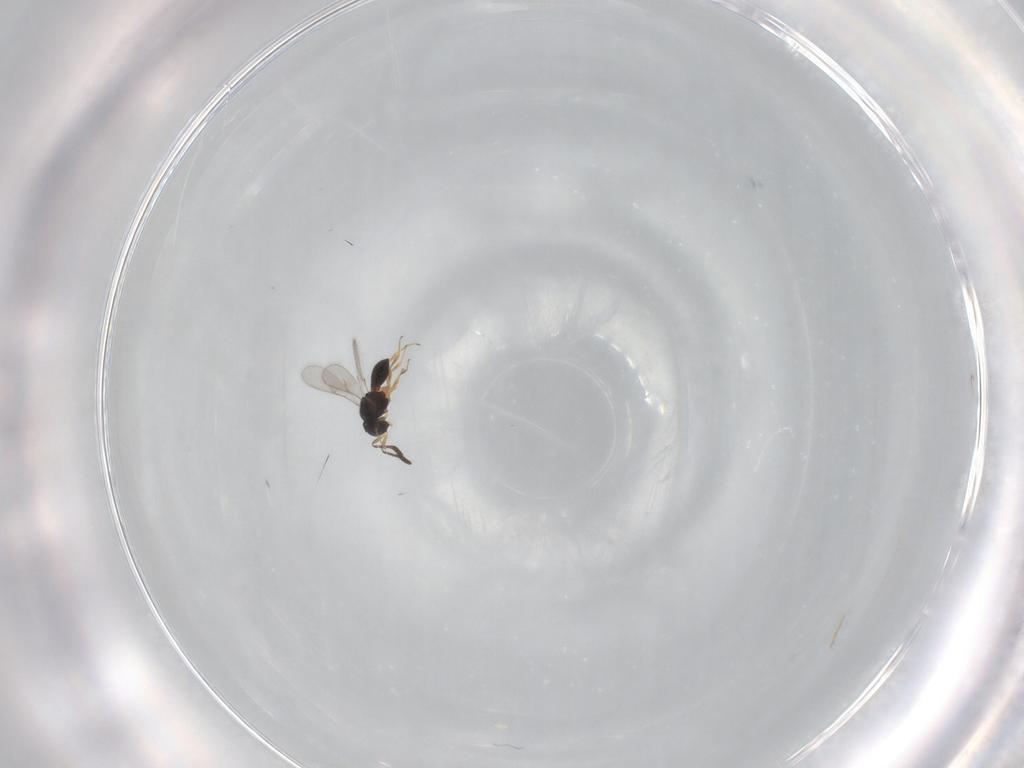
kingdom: Animalia
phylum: Arthropoda
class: Insecta
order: Hymenoptera
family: Scelionidae
